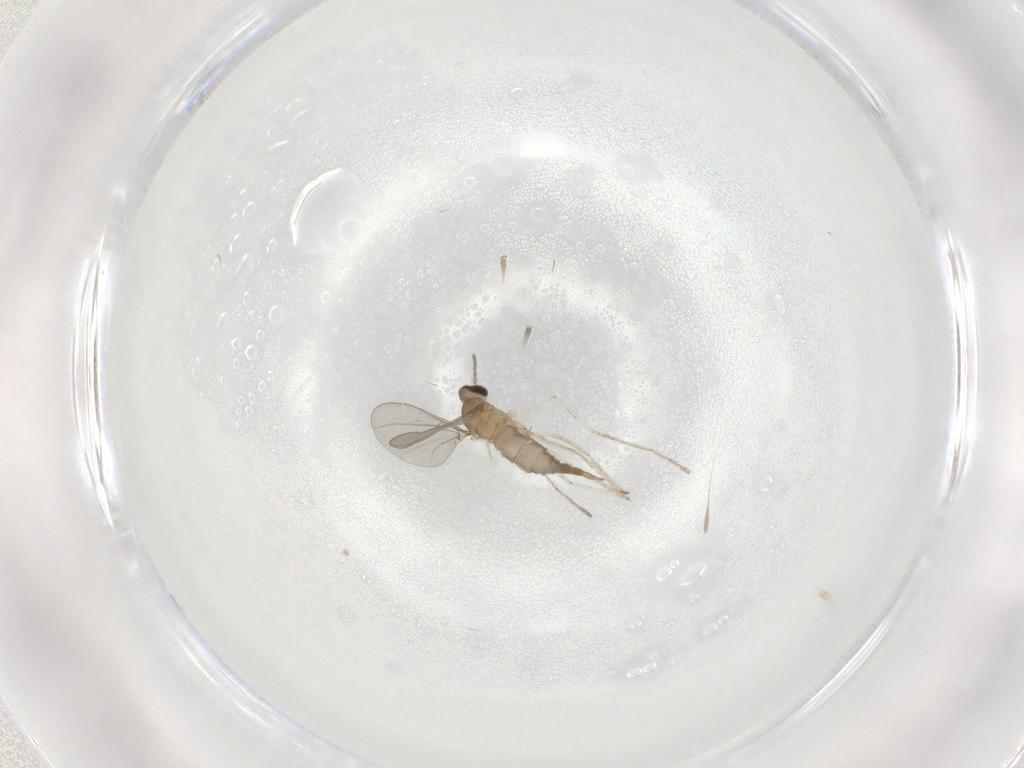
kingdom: Animalia
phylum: Arthropoda
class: Insecta
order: Diptera
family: Cecidomyiidae
